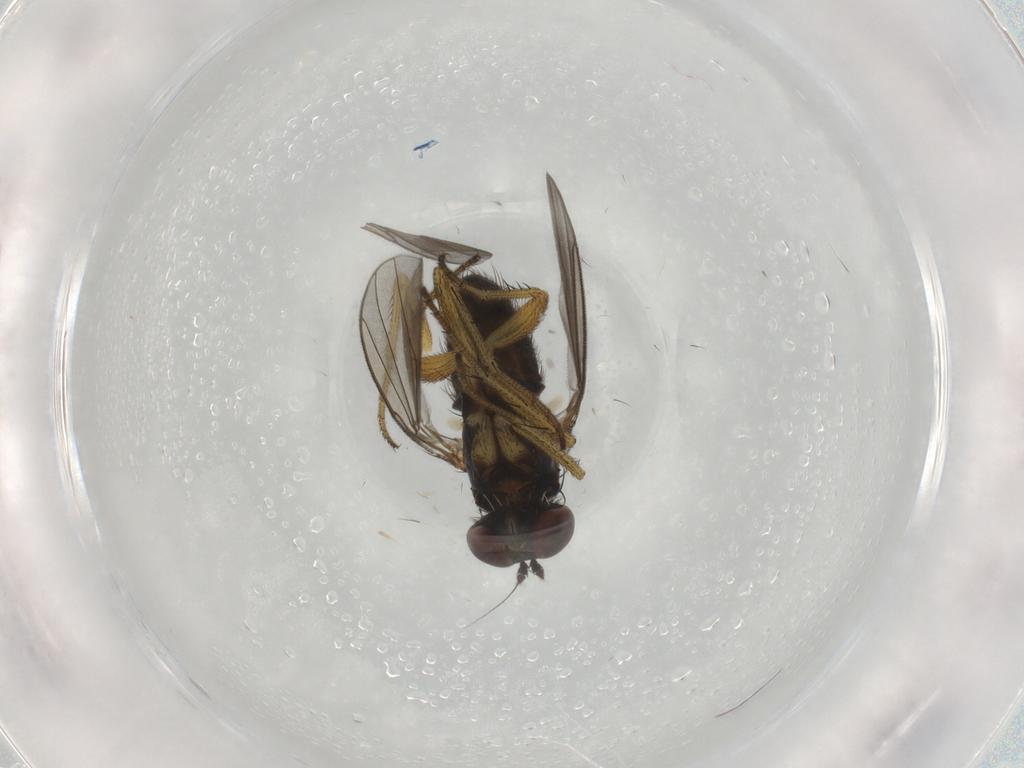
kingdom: Animalia
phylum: Arthropoda
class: Insecta
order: Diptera
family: Dolichopodidae
